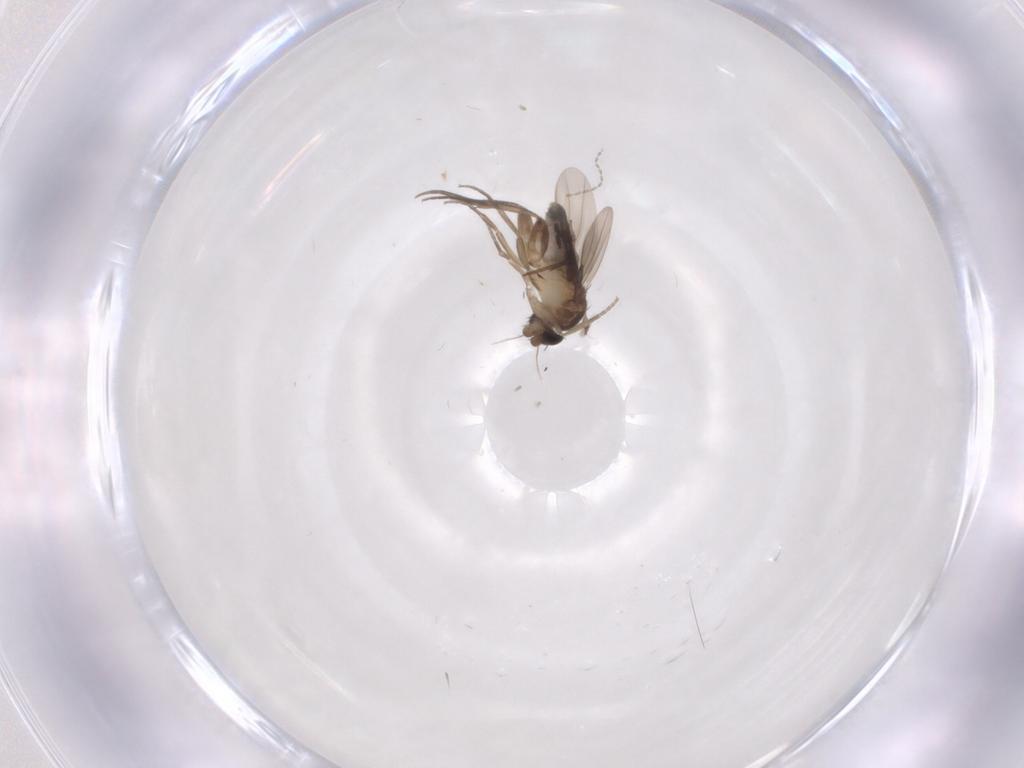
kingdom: Animalia
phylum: Arthropoda
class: Insecta
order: Diptera
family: Phoridae
